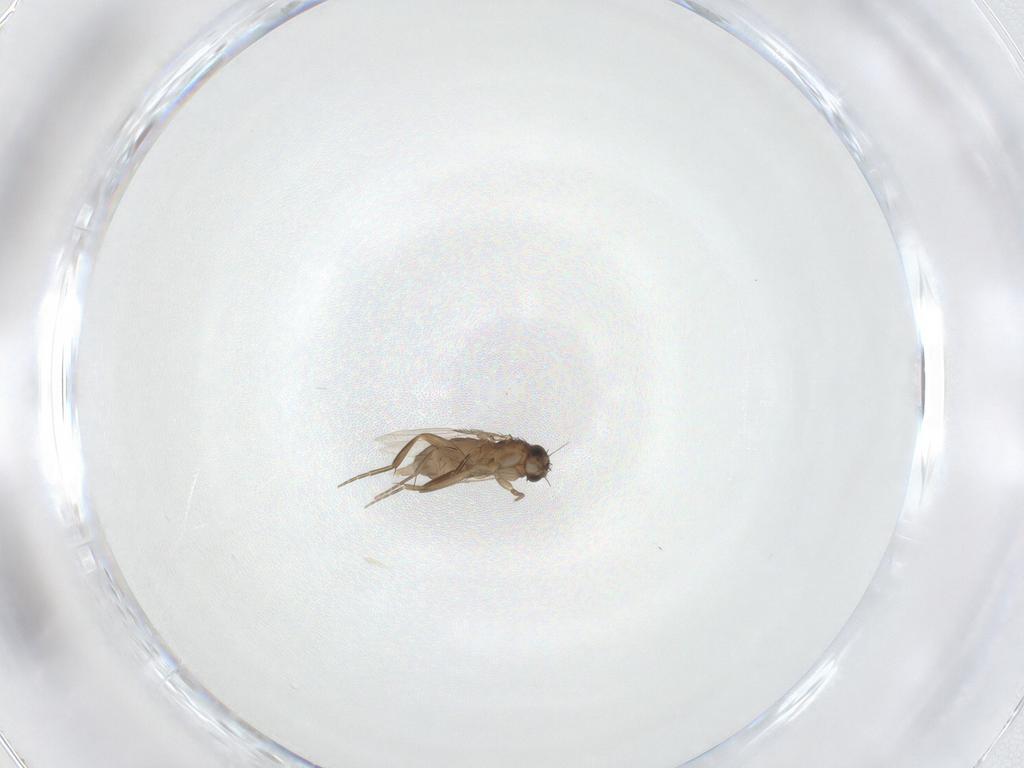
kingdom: Animalia
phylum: Arthropoda
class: Insecta
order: Diptera
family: Phoridae
